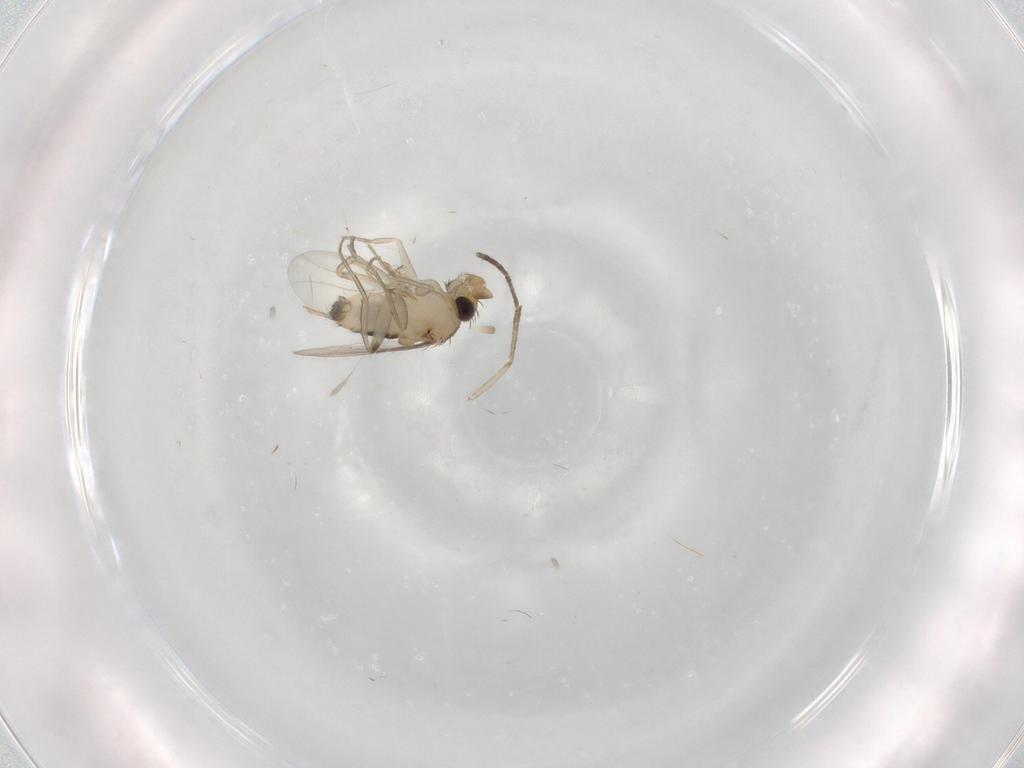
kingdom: Animalia
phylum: Arthropoda
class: Insecta
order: Diptera
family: Phoridae
